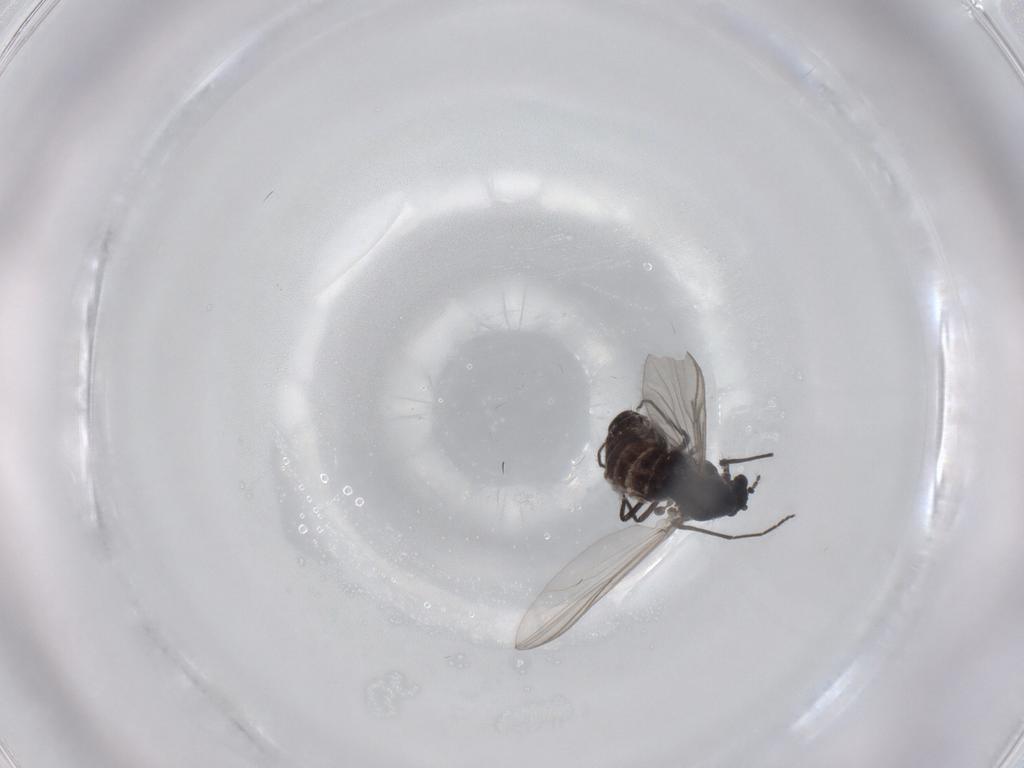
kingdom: Animalia
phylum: Arthropoda
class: Insecta
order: Diptera
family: Chironomidae
